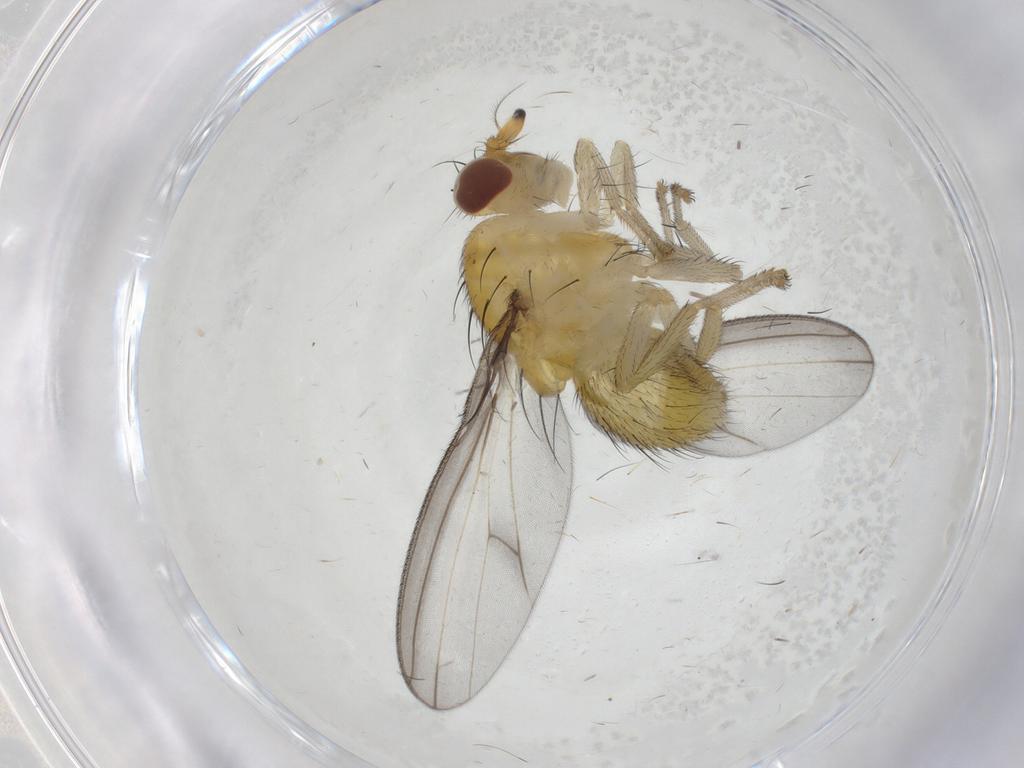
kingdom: Animalia
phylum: Arthropoda
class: Insecta
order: Diptera
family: Lauxaniidae
